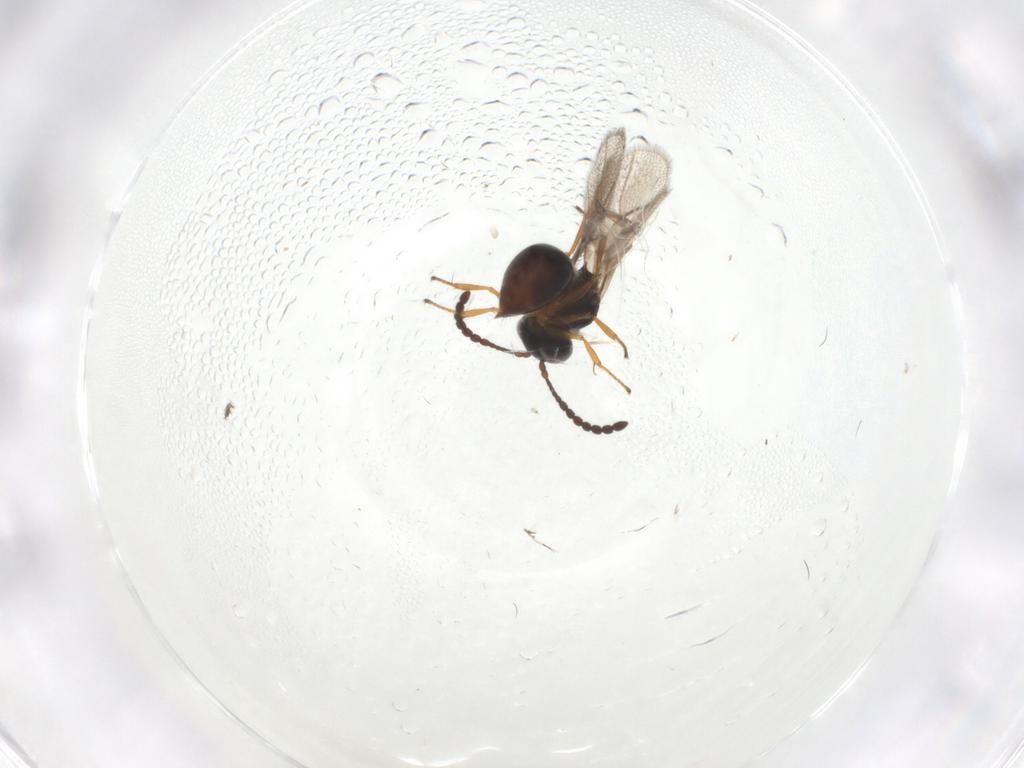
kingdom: Animalia
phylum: Arthropoda
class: Insecta
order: Hymenoptera
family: Figitidae
